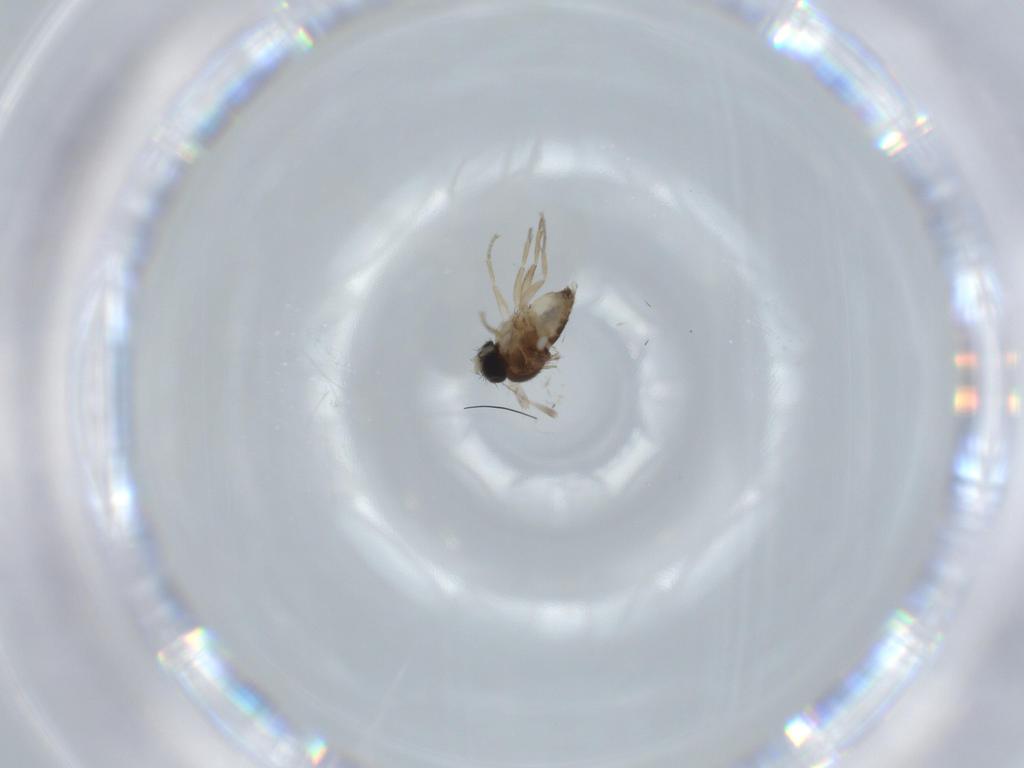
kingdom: Animalia
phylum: Arthropoda
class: Insecta
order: Diptera
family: Phoridae
